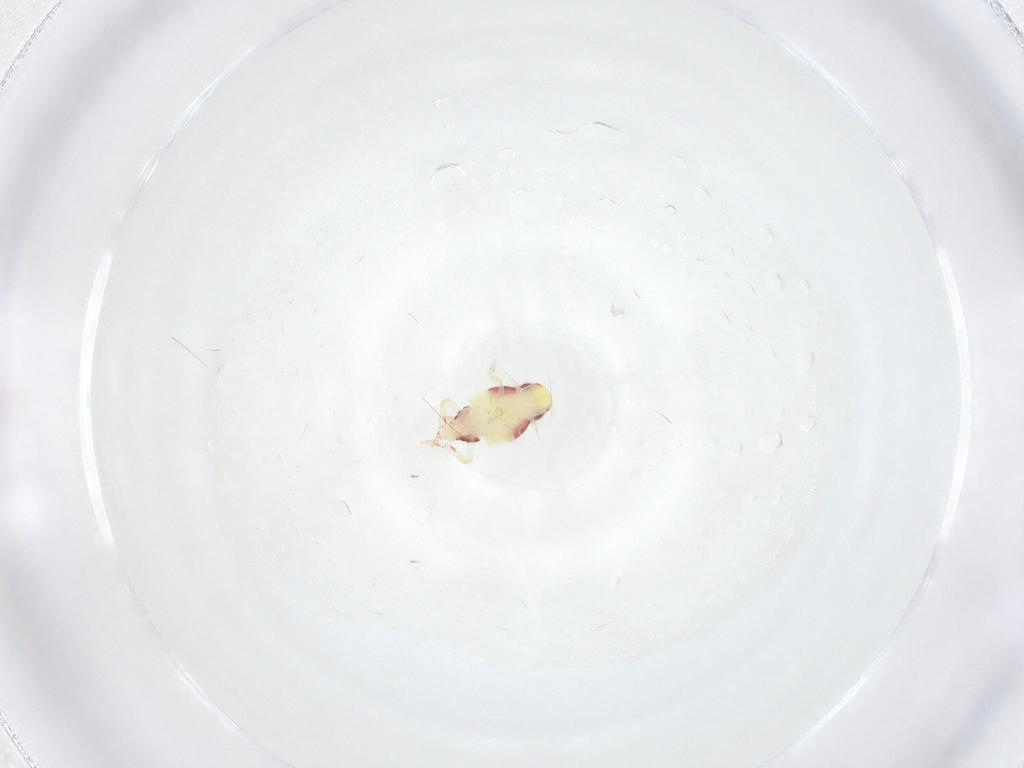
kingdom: Animalia
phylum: Arthropoda
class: Insecta
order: Hemiptera
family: Tropiduchidae
